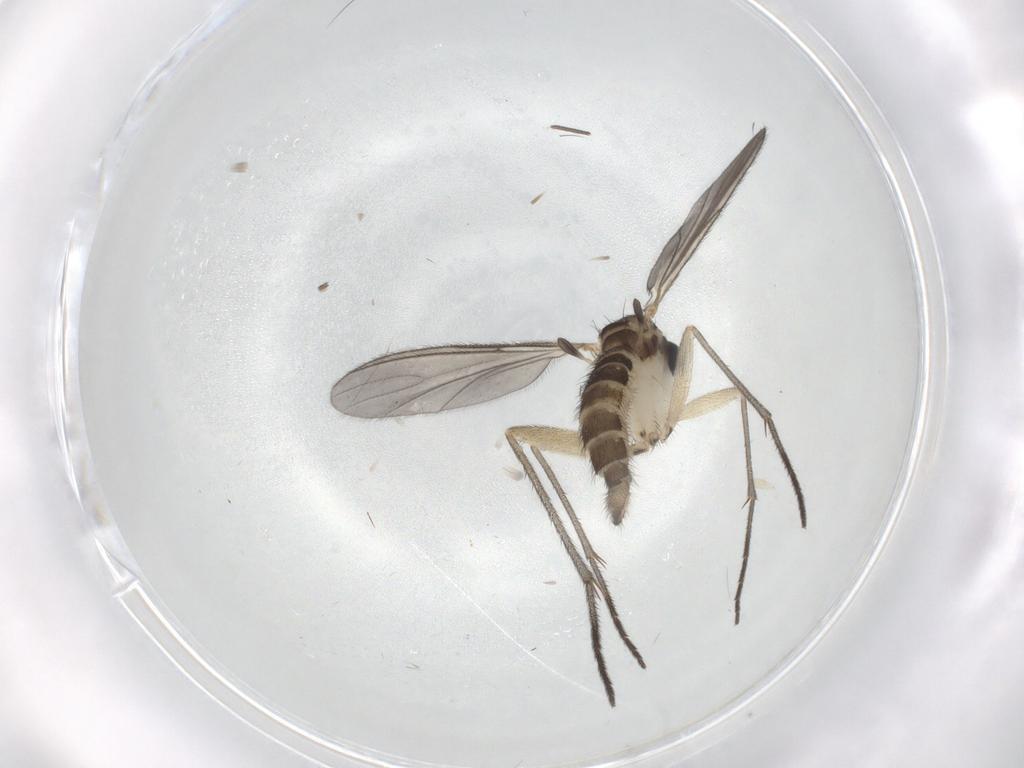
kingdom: Animalia
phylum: Arthropoda
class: Insecta
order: Diptera
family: Sciaridae
